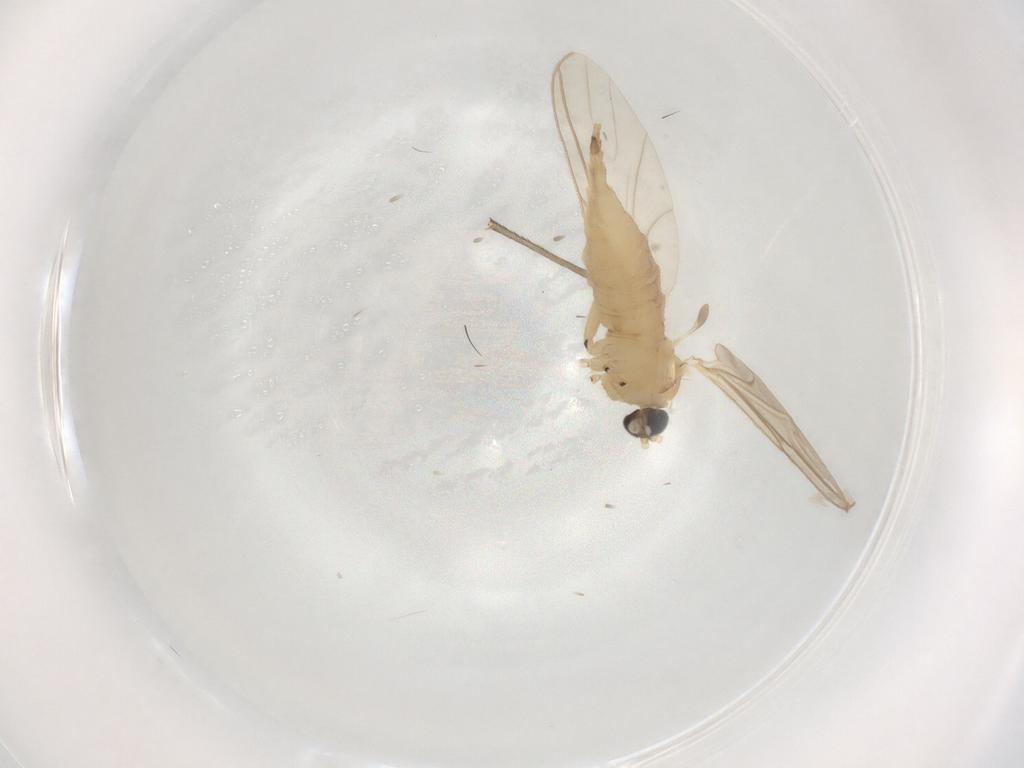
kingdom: Animalia
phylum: Arthropoda
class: Insecta
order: Diptera
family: Sciaridae
